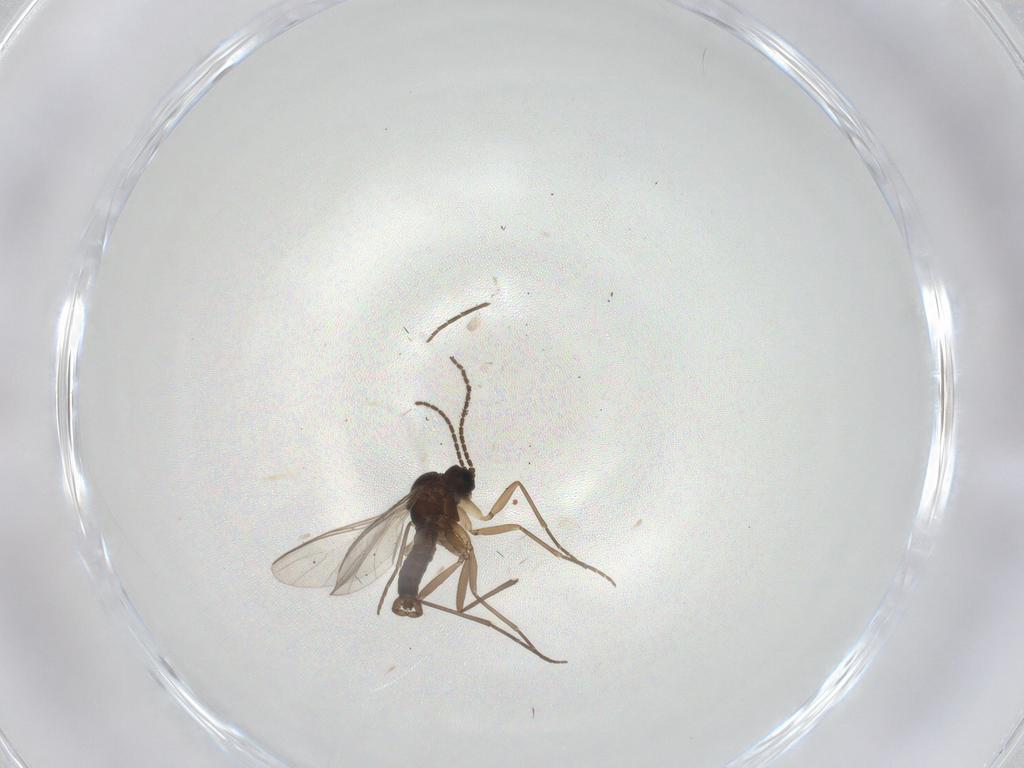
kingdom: Animalia
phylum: Arthropoda
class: Insecta
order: Diptera
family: Sciaridae
